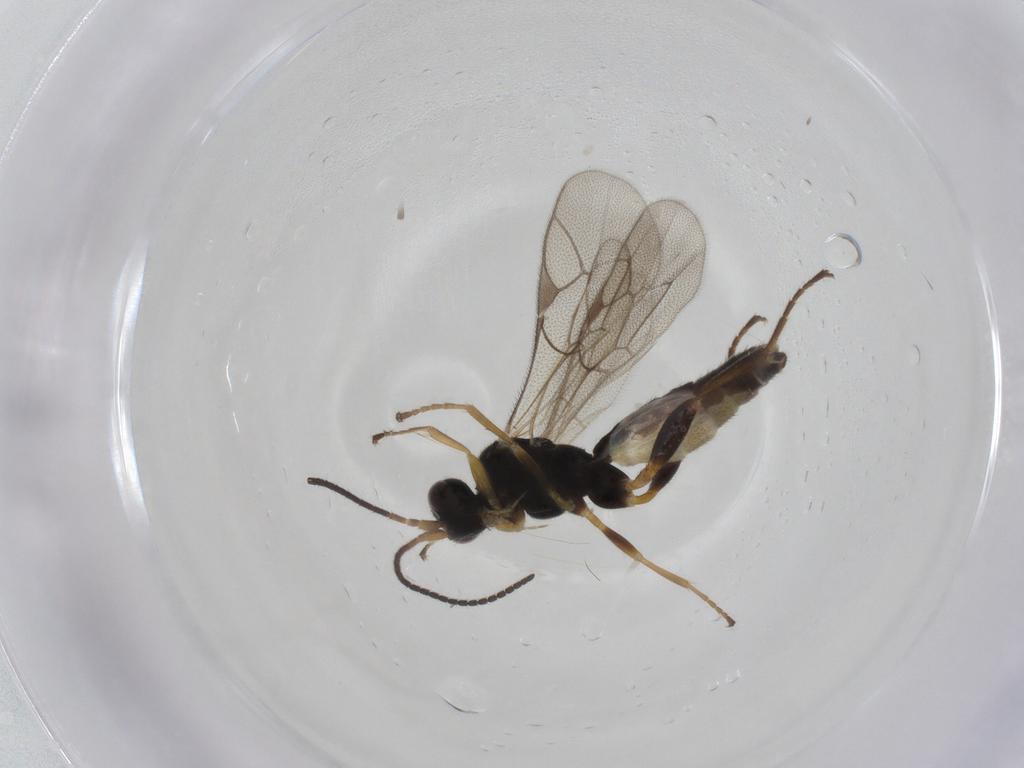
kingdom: Animalia
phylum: Arthropoda
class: Insecta
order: Hymenoptera
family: Ichneumonidae
